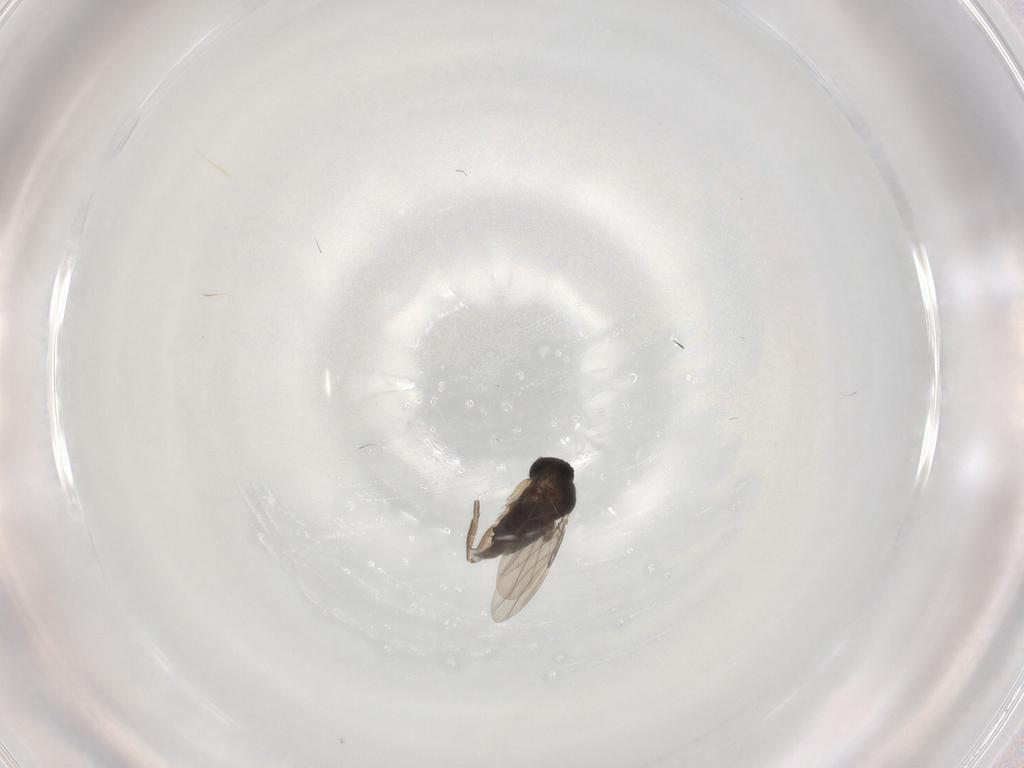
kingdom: Animalia
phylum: Arthropoda
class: Insecta
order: Diptera
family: Phoridae
